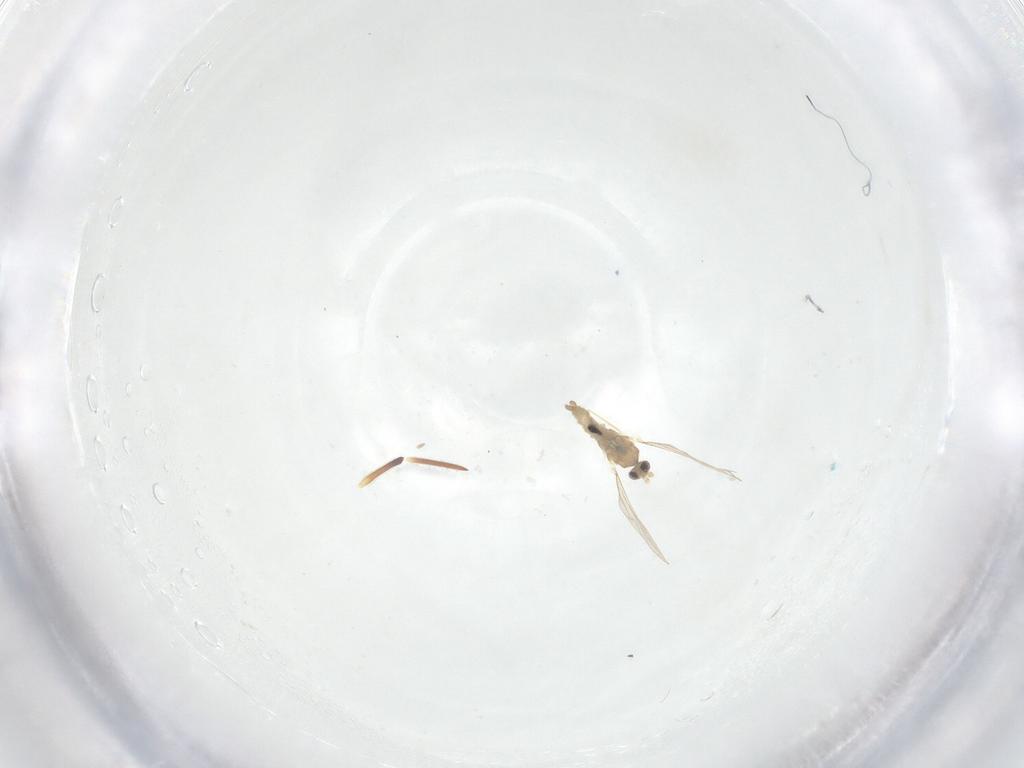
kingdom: Animalia
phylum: Arthropoda
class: Insecta
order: Diptera
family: Cecidomyiidae
